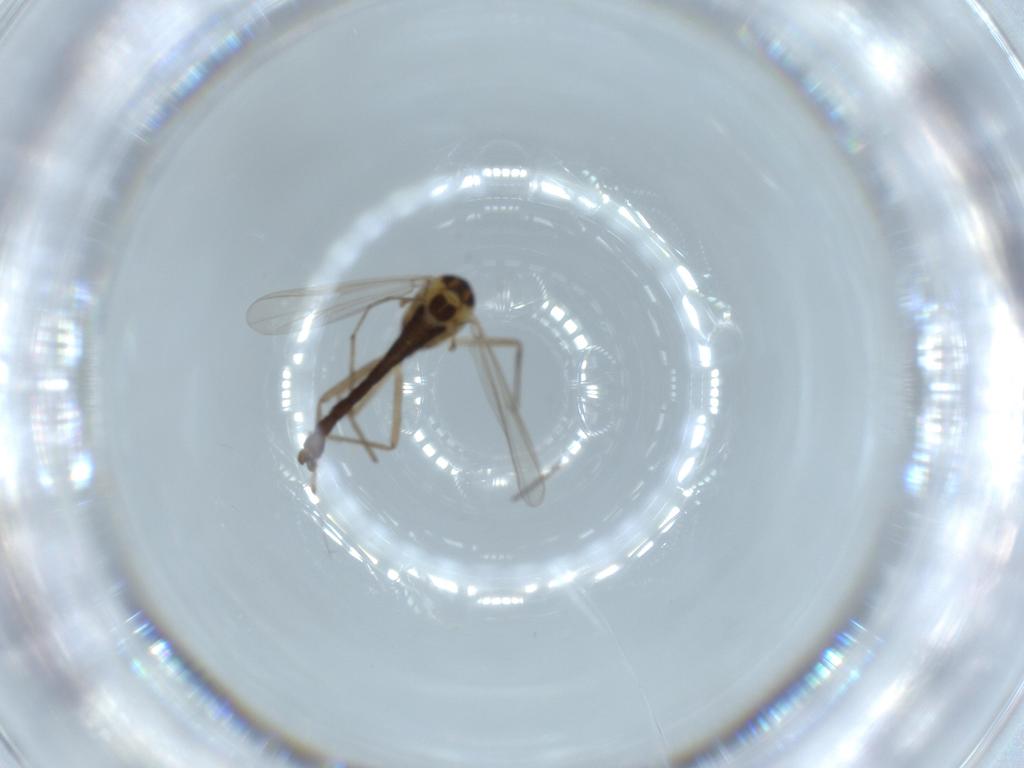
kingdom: Animalia
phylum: Arthropoda
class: Insecta
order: Diptera
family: Chironomidae
